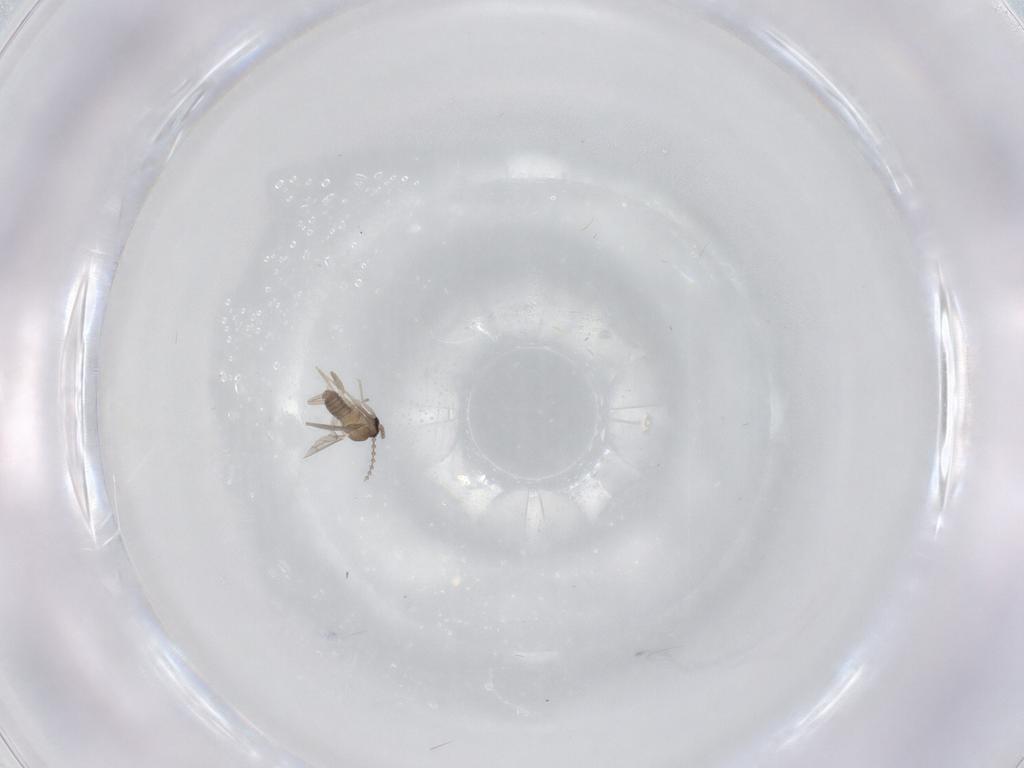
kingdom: Animalia
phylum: Arthropoda
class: Insecta
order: Diptera
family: Cecidomyiidae
